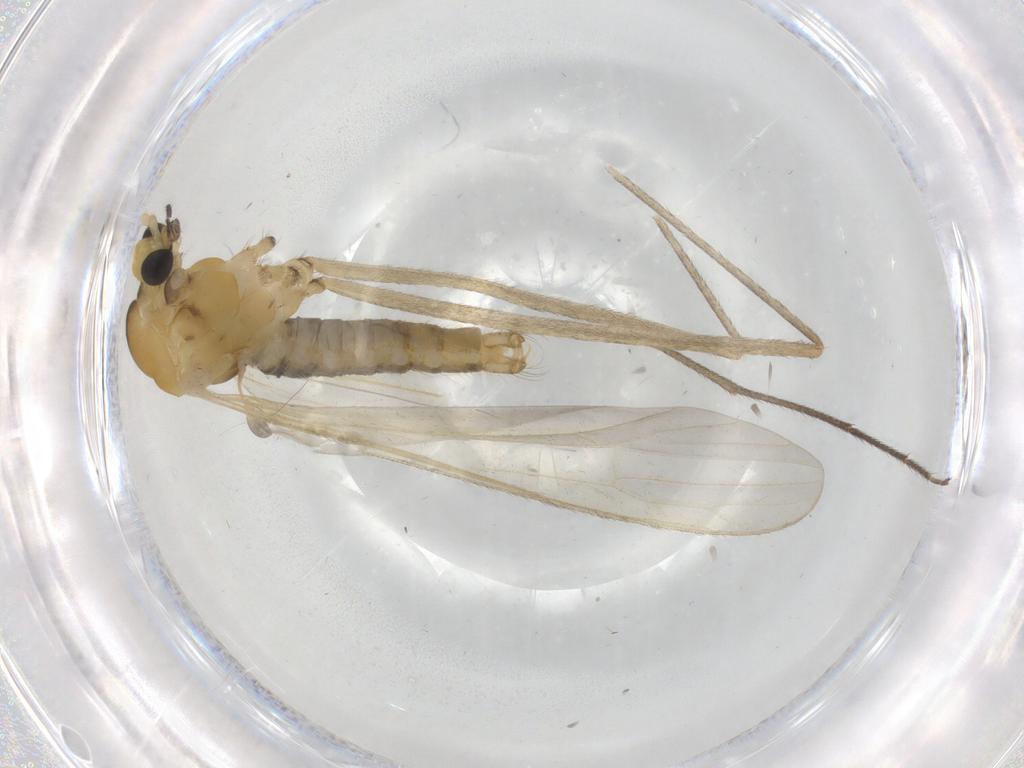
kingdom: Animalia
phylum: Arthropoda
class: Insecta
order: Diptera
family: Limoniidae
